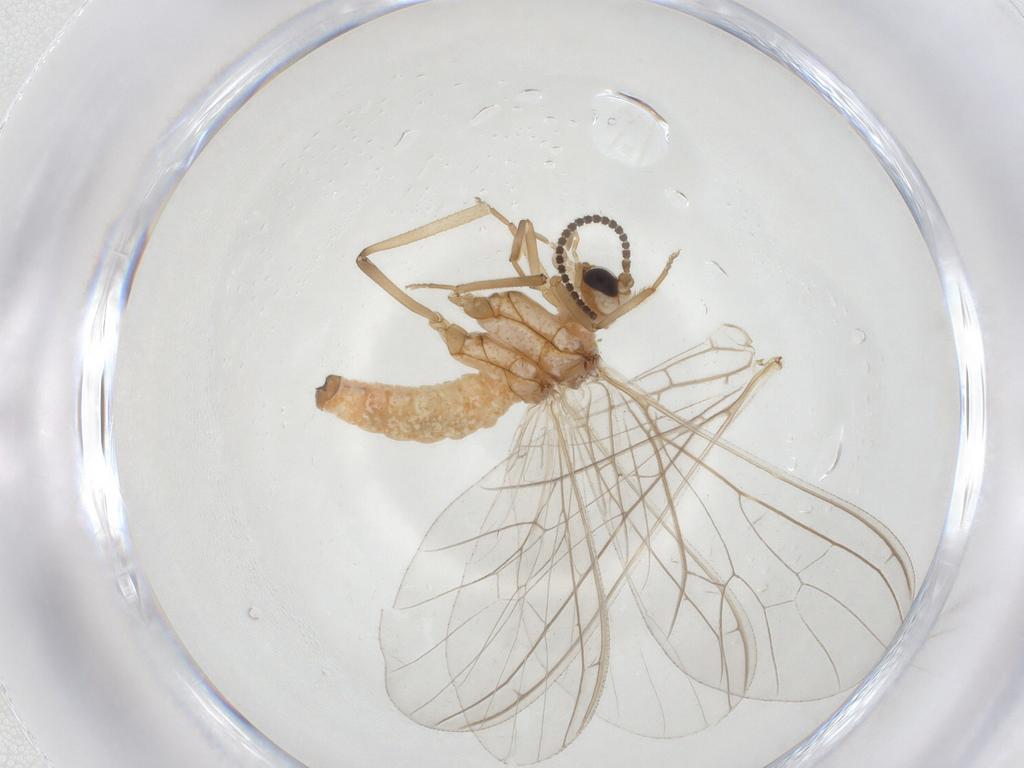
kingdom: Animalia
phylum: Arthropoda
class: Insecta
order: Neuroptera
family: Coniopterygidae
